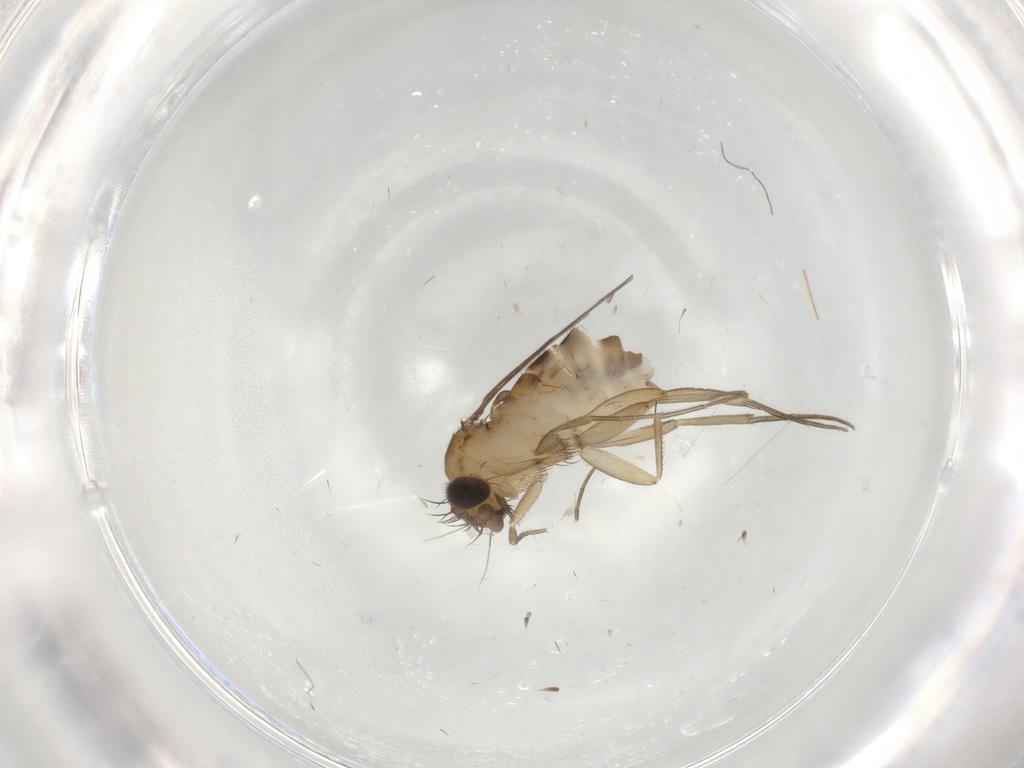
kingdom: Animalia
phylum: Arthropoda
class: Insecta
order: Diptera
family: Phoridae
